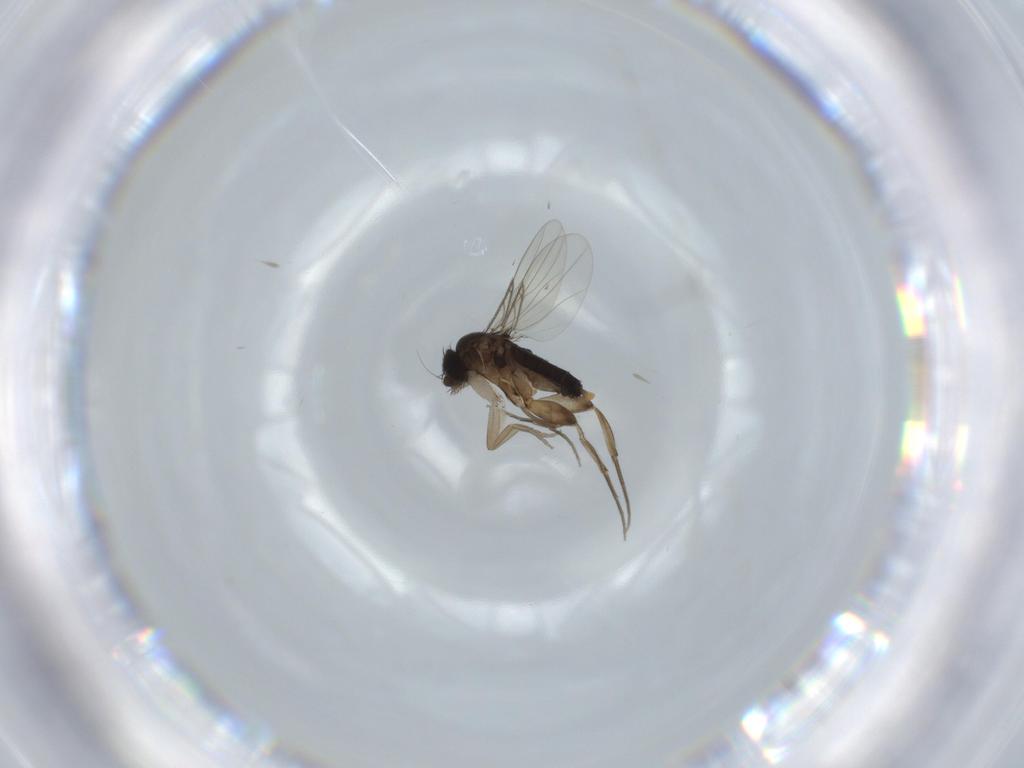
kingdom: Animalia
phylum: Arthropoda
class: Insecta
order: Diptera
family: Phoridae
